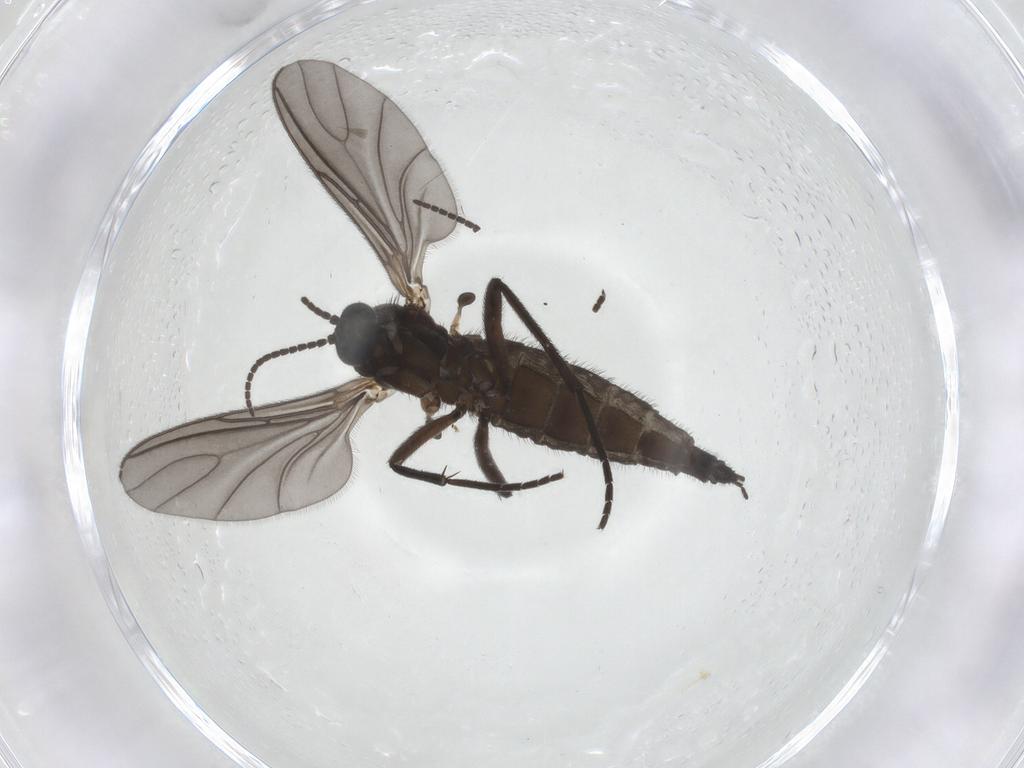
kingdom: Animalia
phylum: Arthropoda
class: Insecta
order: Diptera
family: Sciaridae
